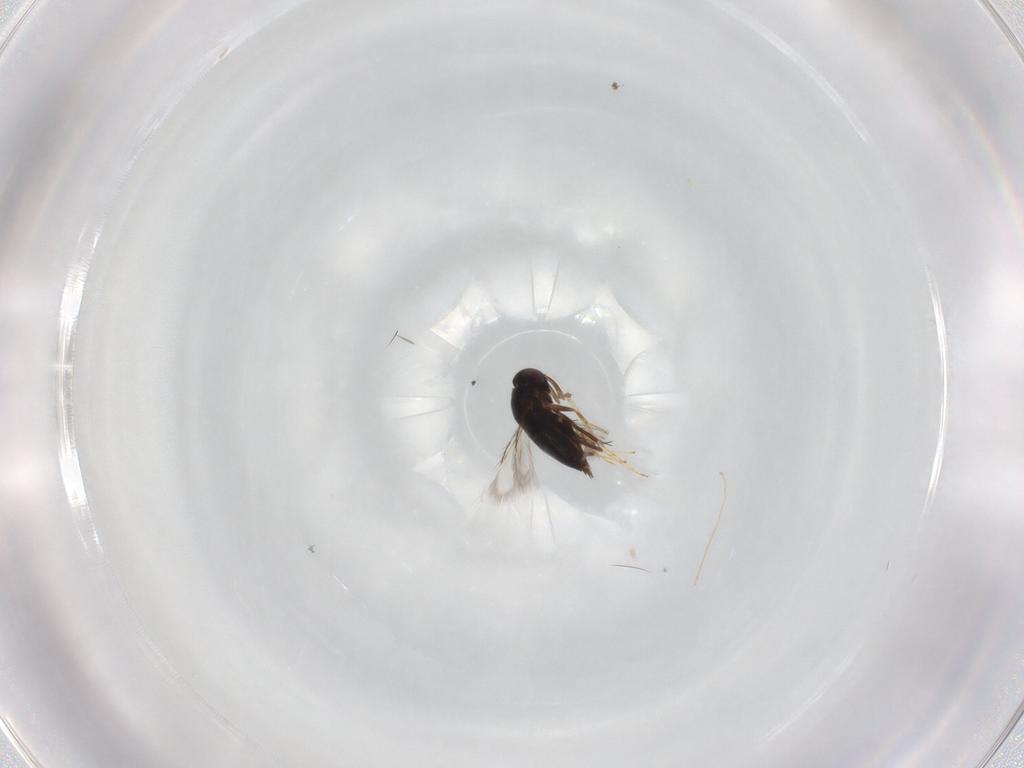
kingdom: Animalia
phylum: Arthropoda
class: Insecta
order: Hymenoptera
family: Signiphoridae
